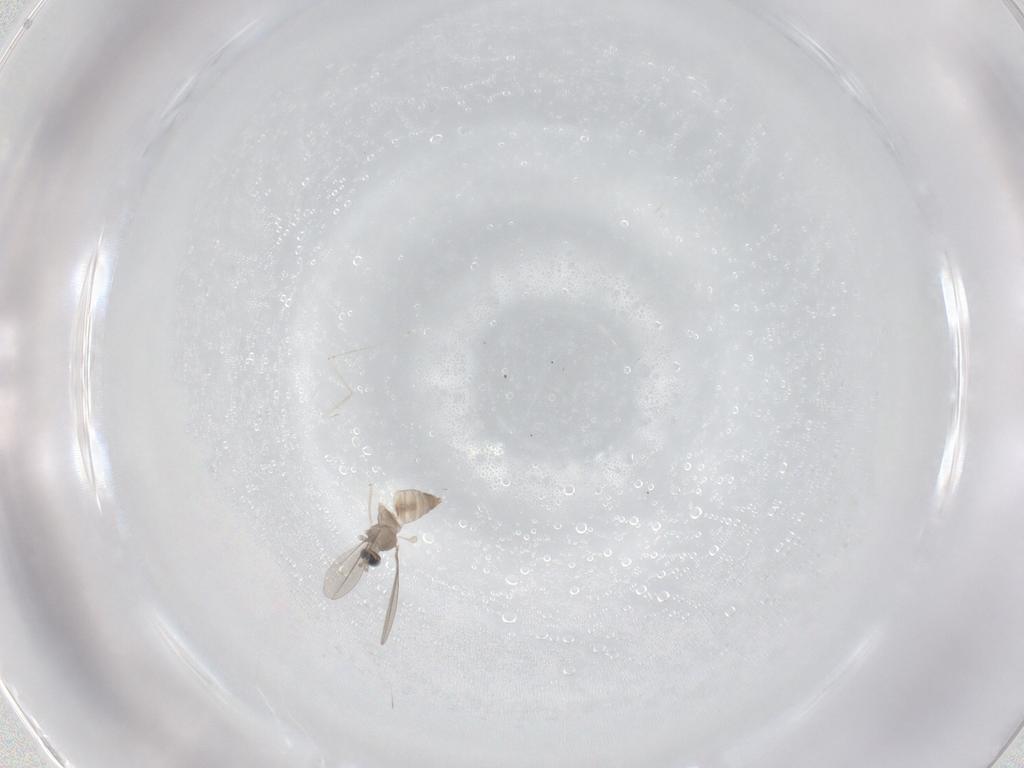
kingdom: Animalia
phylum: Arthropoda
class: Insecta
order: Diptera
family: Cecidomyiidae
